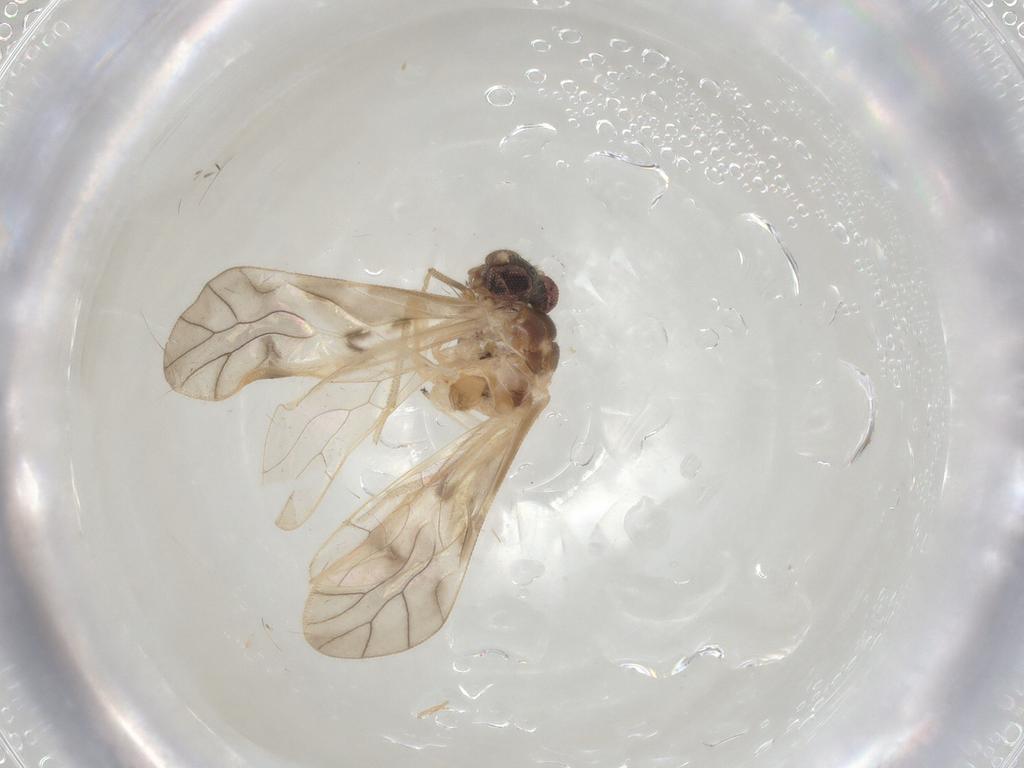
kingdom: Animalia
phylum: Arthropoda
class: Insecta
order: Psocodea
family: Caeciliusidae
